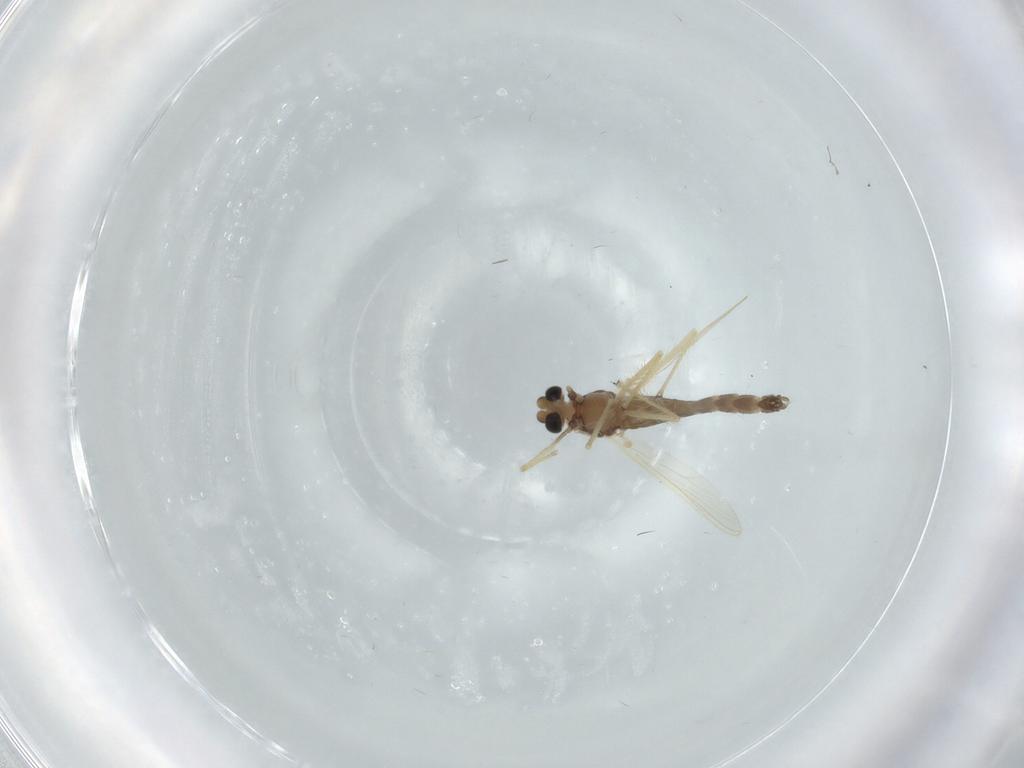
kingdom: Animalia
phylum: Arthropoda
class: Insecta
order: Diptera
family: Chironomidae
